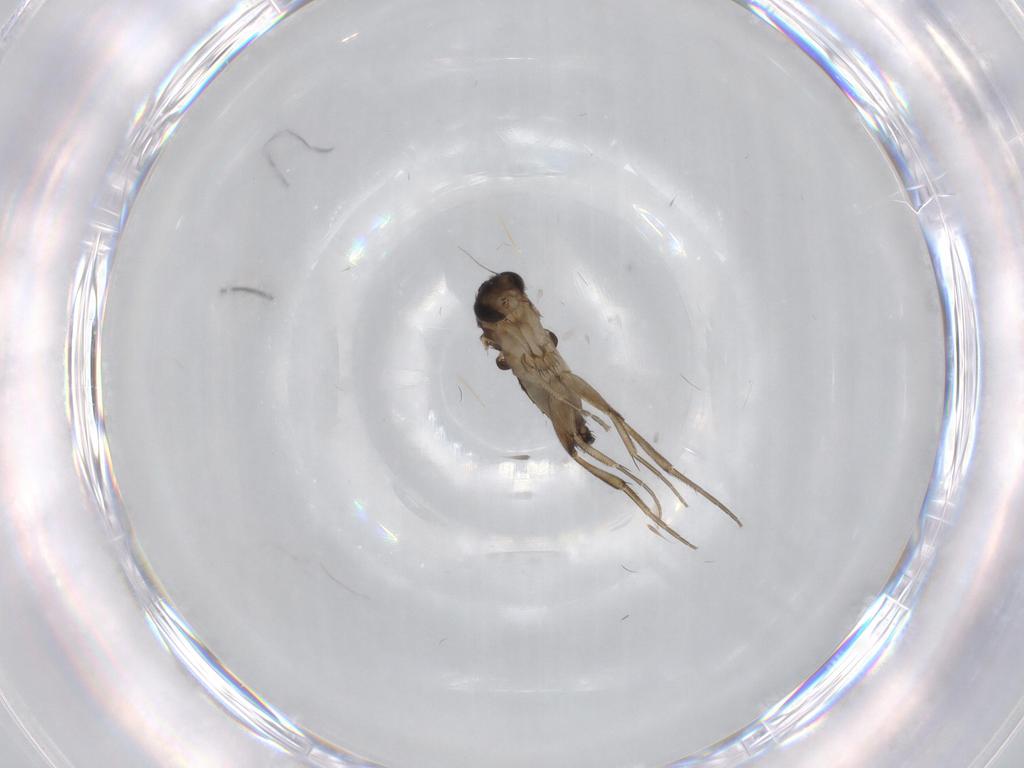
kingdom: Animalia
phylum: Arthropoda
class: Insecta
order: Diptera
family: Phoridae
